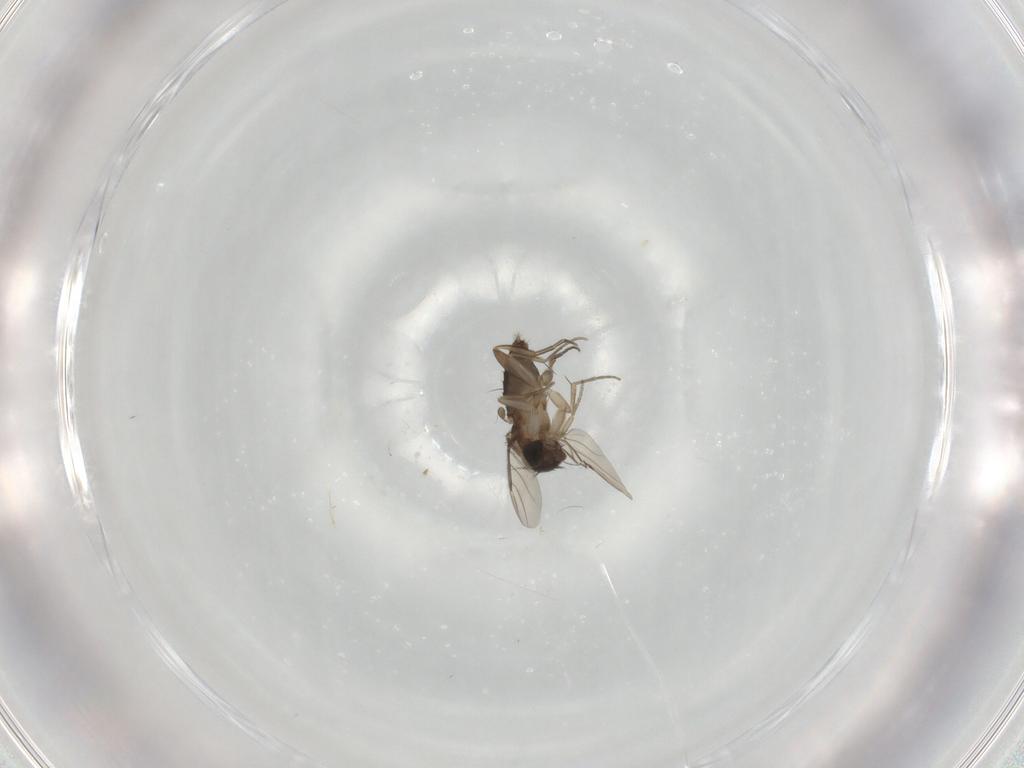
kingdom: Animalia
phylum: Arthropoda
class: Insecta
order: Diptera
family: Phoridae
